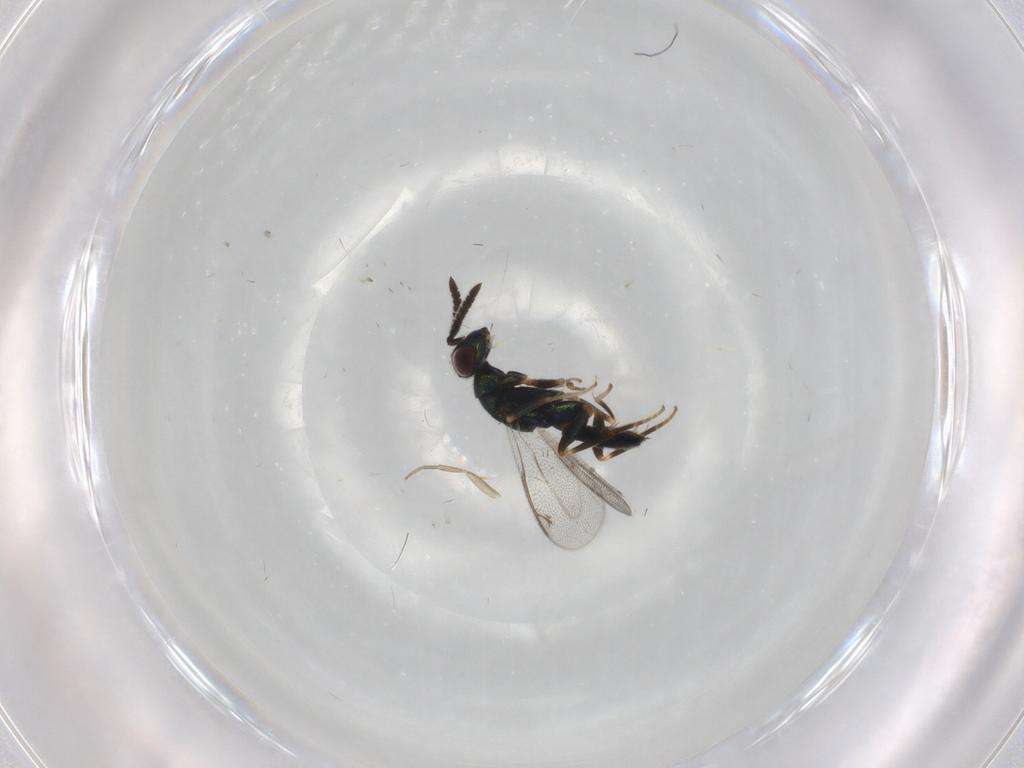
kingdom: Animalia
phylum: Arthropoda
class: Insecta
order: Hymenoptera
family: Cleonyminae
